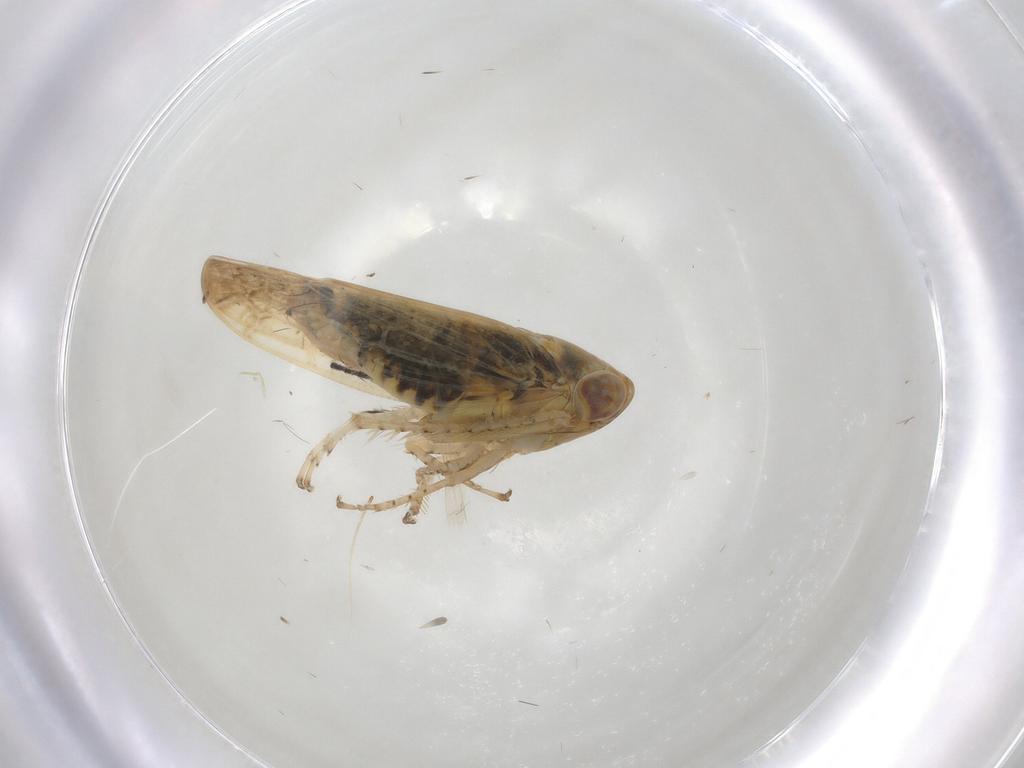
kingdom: Animalia
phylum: Arthropoda
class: Insecta
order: Hemiptera
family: Cicadellidae
